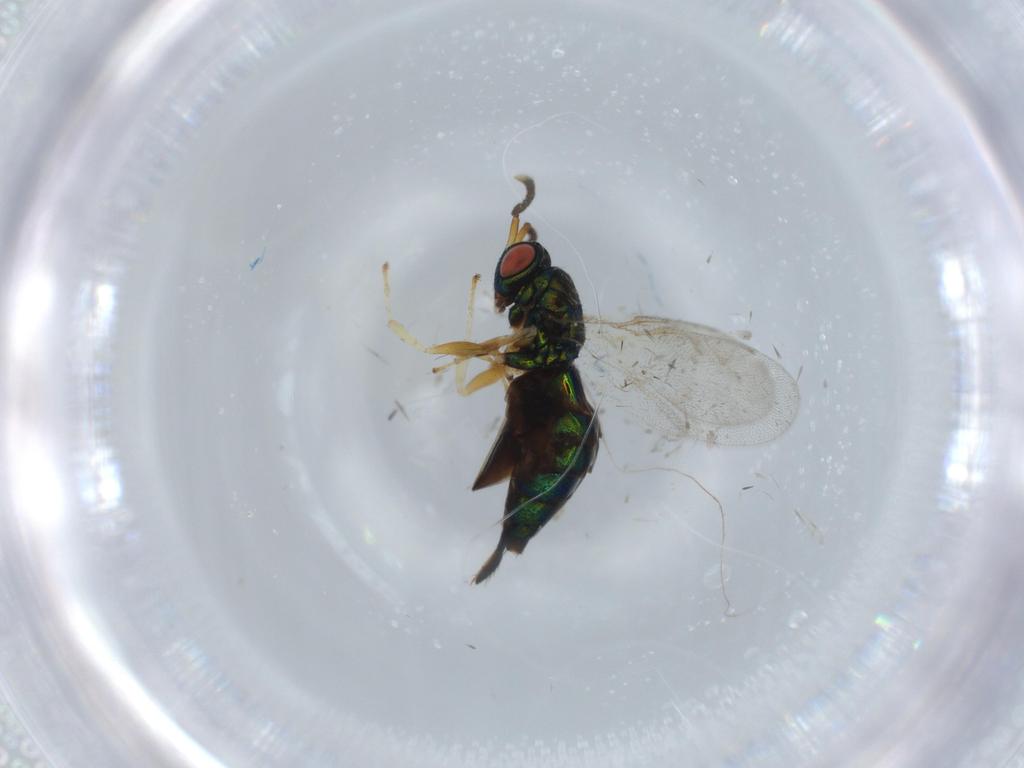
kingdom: Animalia
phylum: Arthropoda
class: Insecta
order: Hymenoptera
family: Pteromalidae
